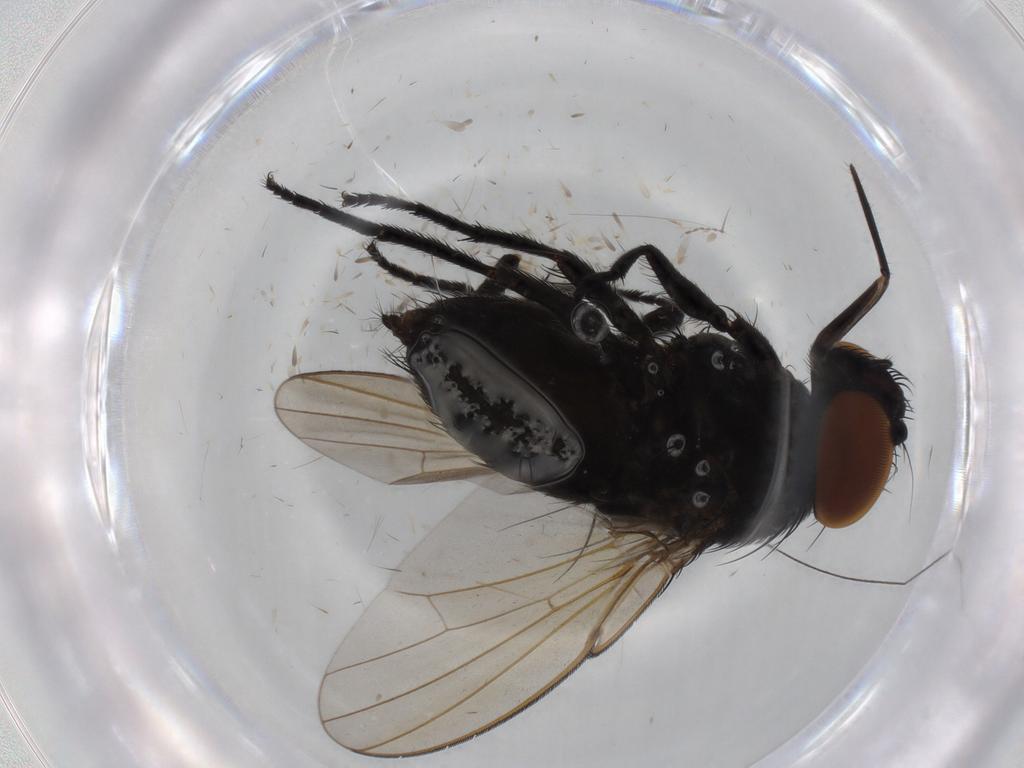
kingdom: Animalia
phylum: Arthropoda
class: Insecta
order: Diptera
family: Milichiidae
